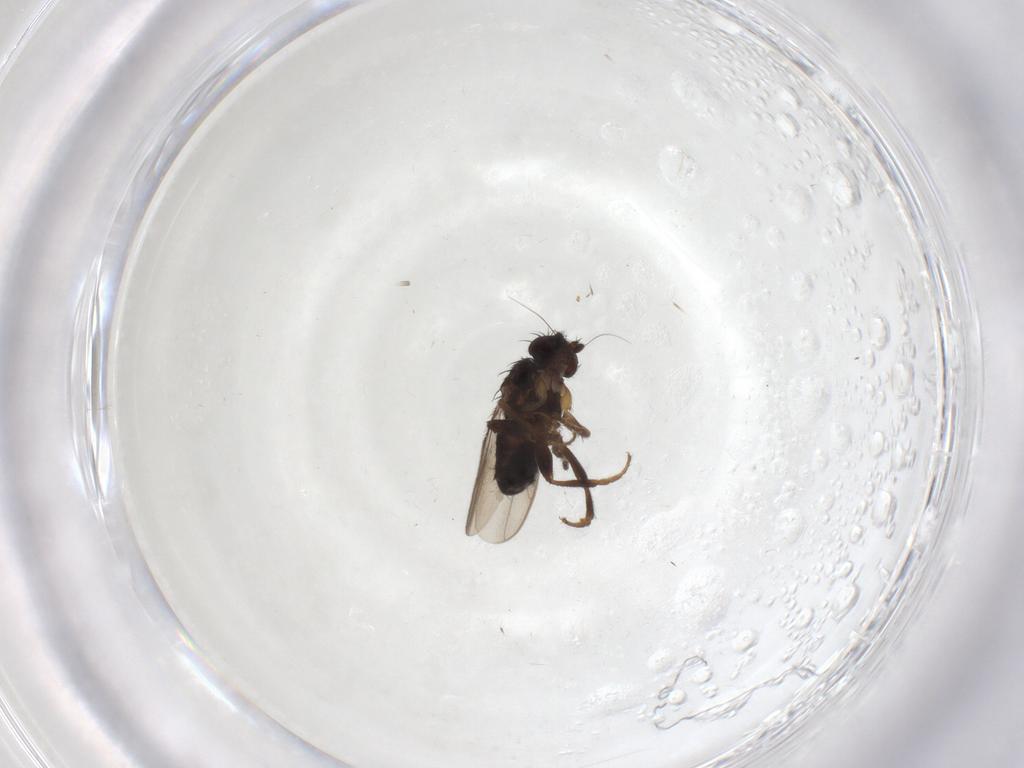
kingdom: Animalia
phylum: Arthropoda
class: Insecta
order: Diptera
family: Sphaeroceridae
